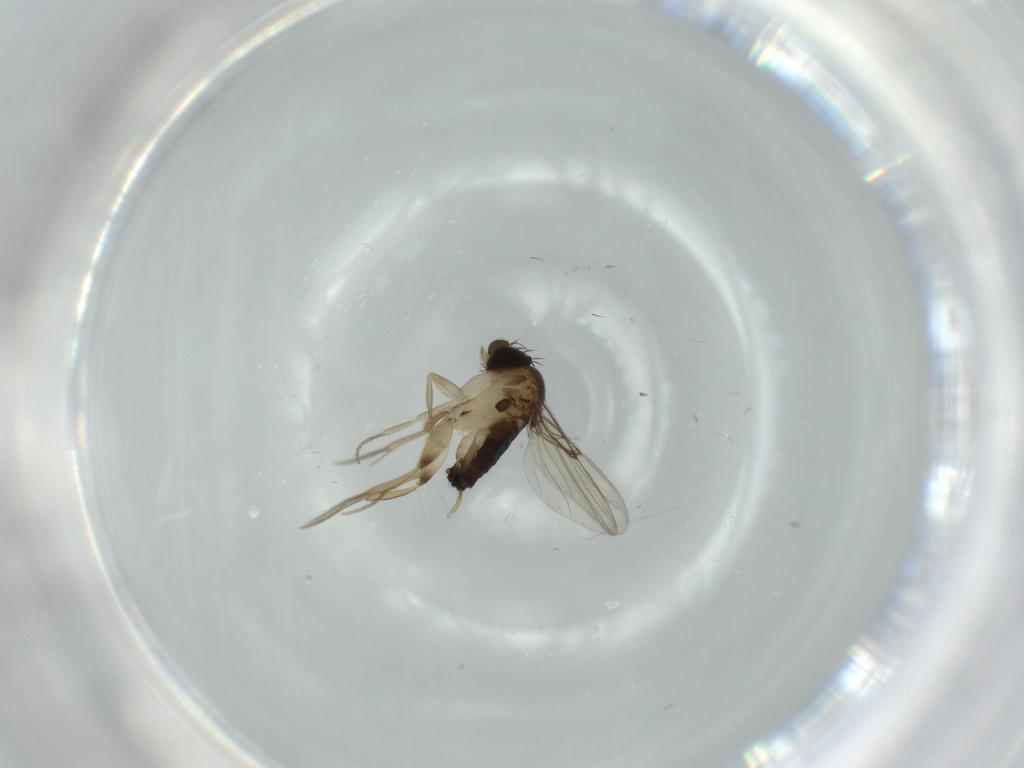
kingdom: Animalia
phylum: Arthropoda
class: Insecta
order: Diptera
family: Phoridae
